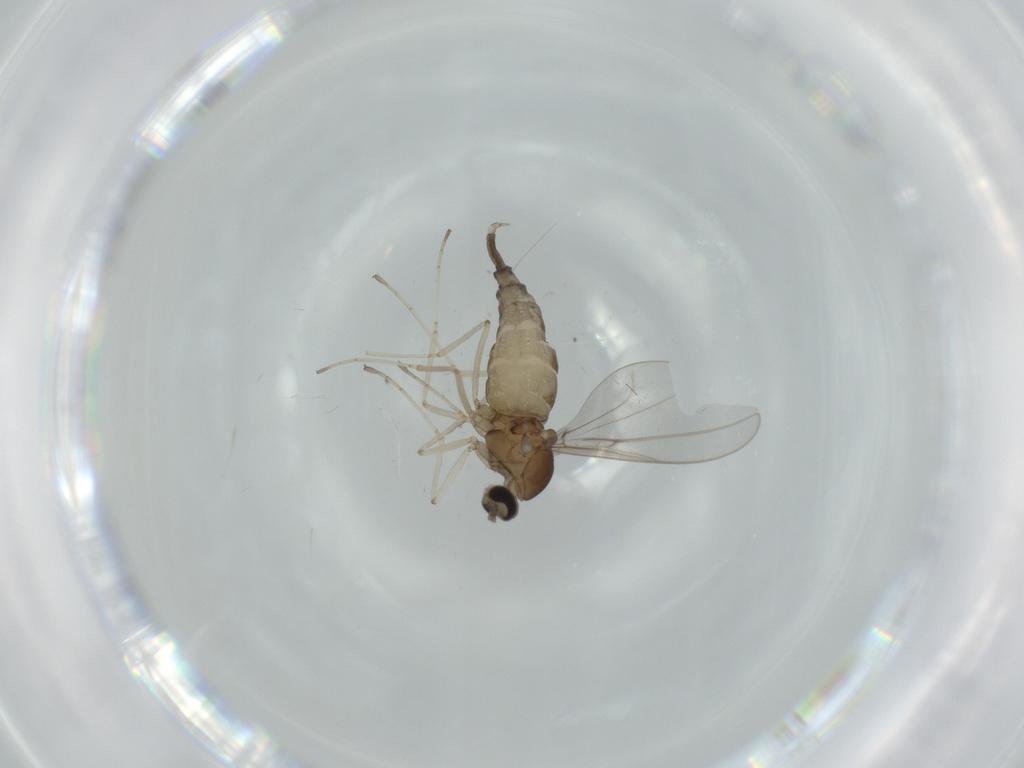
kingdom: Animalia
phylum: Arthropoda
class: Insecta
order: Diptera
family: Cecidomyiidae
